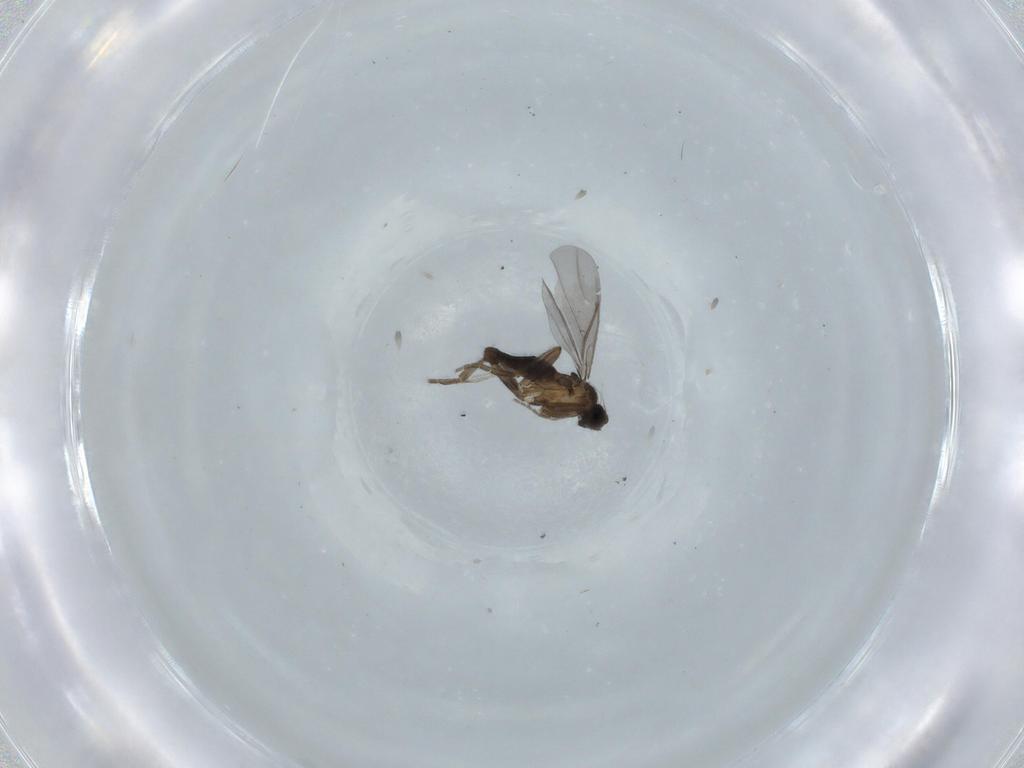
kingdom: Animalia
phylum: Arthropoda
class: Insecta
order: Diptera
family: Phoridae
